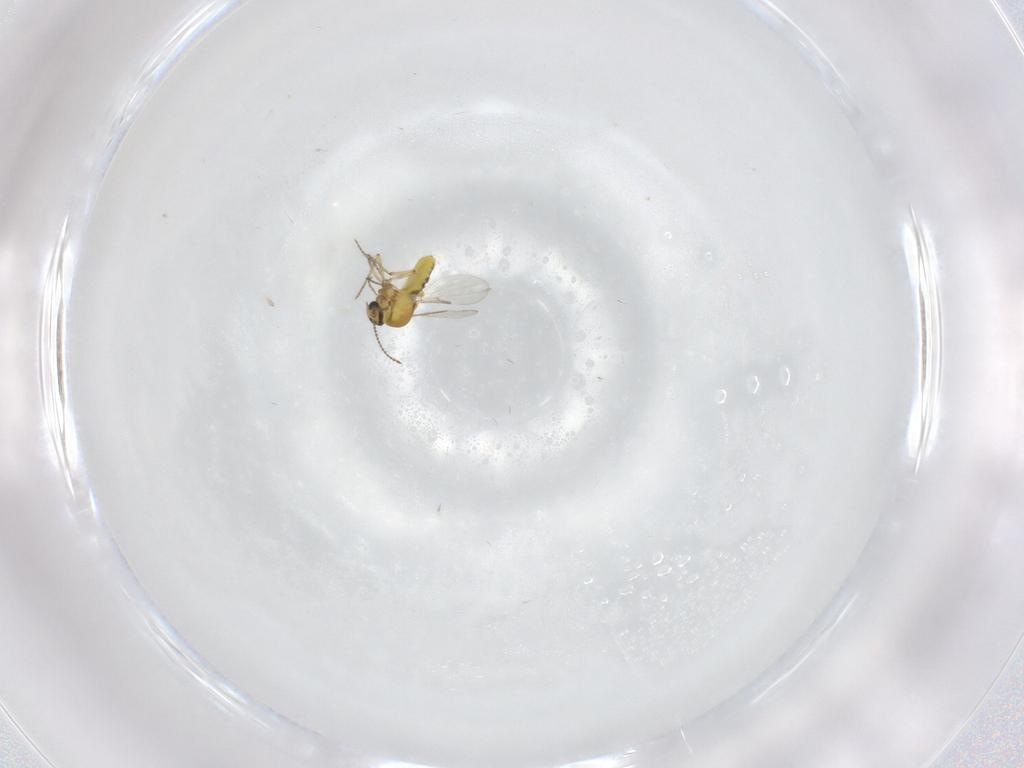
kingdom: Animalia
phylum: Arthropoda
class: Insecta
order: Diptera
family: Ceratopogonidae
